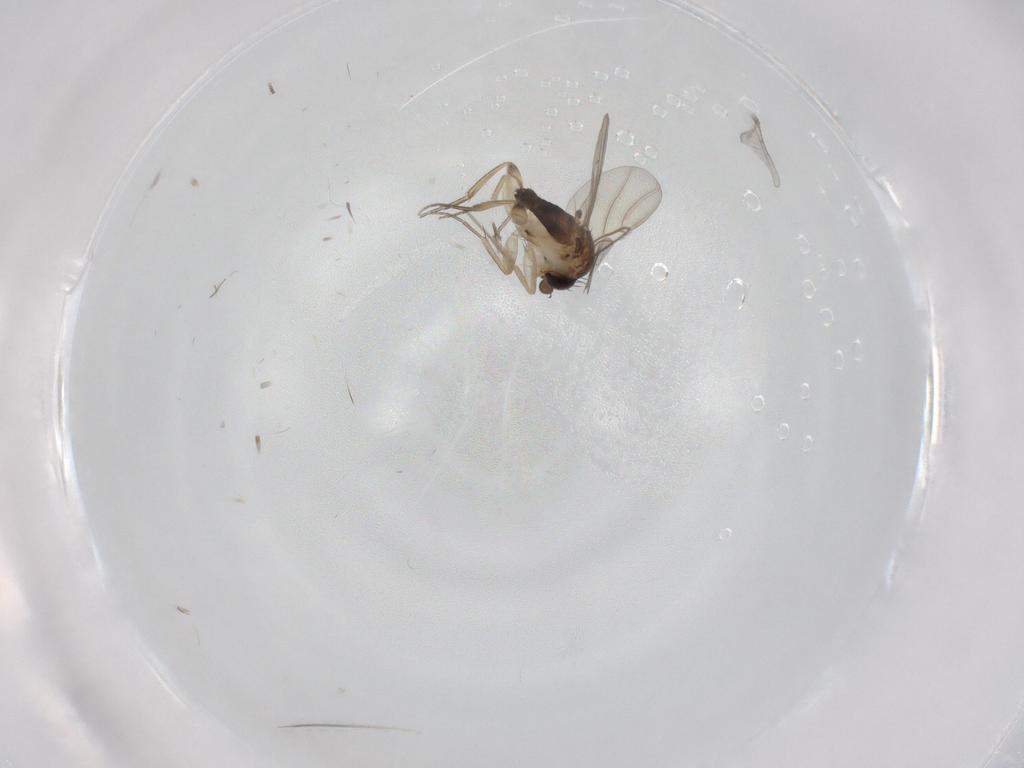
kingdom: Animalia
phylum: Arthropoda
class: Insecta
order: Diptera
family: Phoridae
